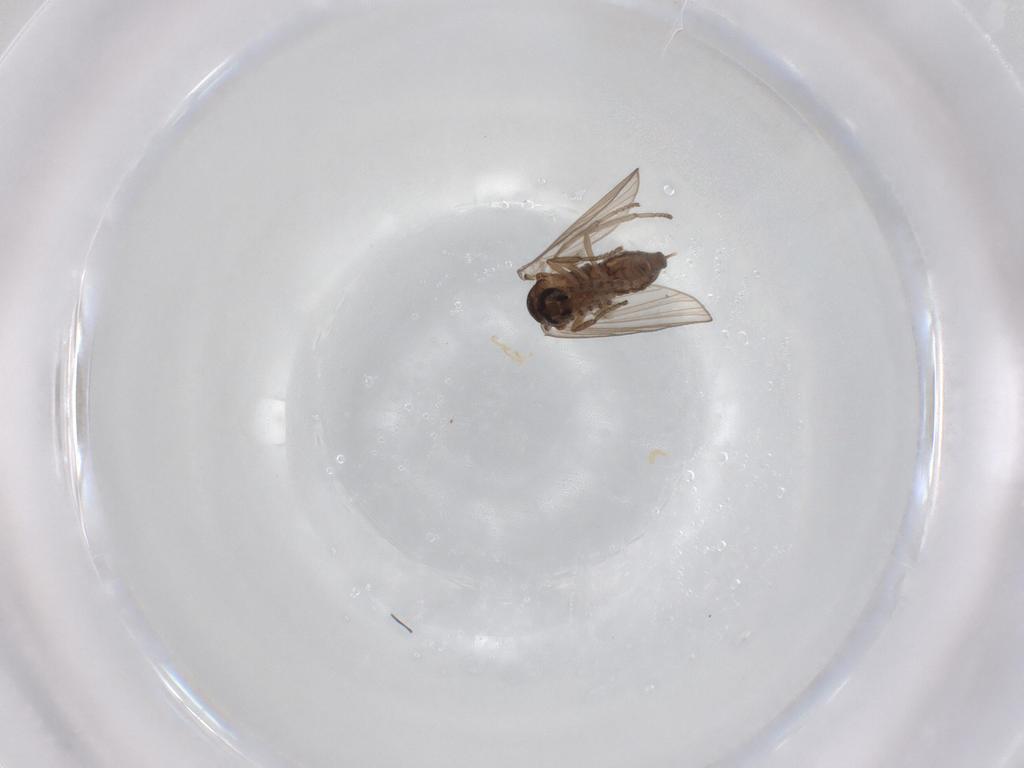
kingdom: Animalia
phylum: Arthropoda
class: Insecta
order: Diptera
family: Psychodidae
